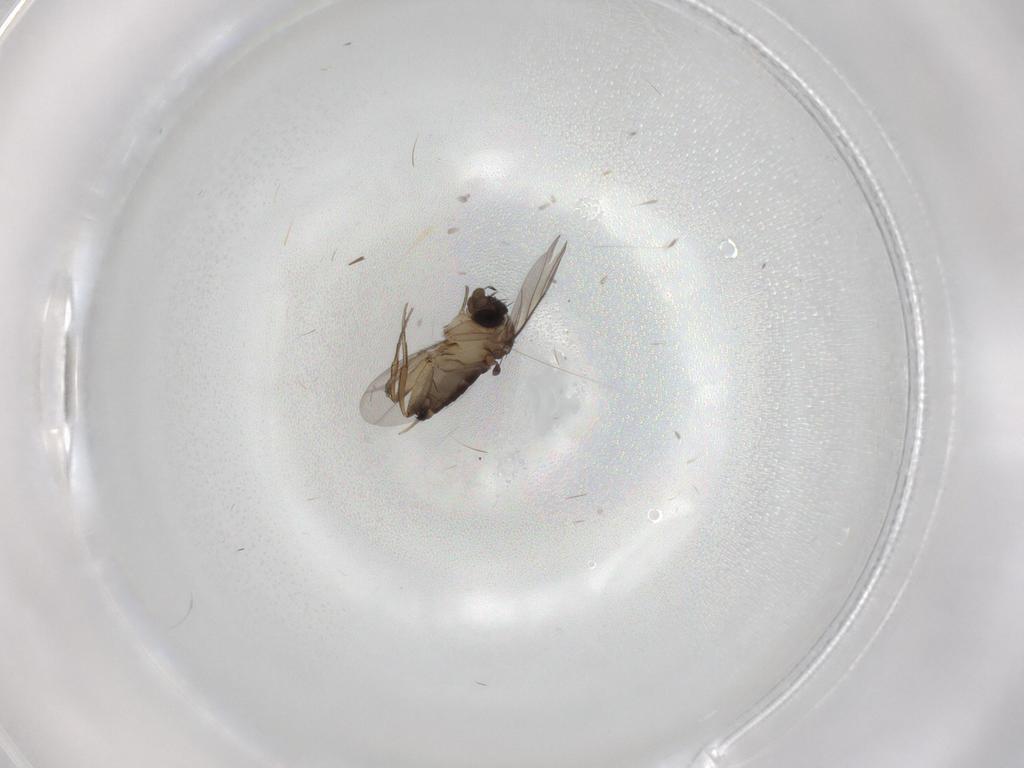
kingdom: Animalia
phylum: Arthropoda
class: Insecta
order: Diptera
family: Phoridae
